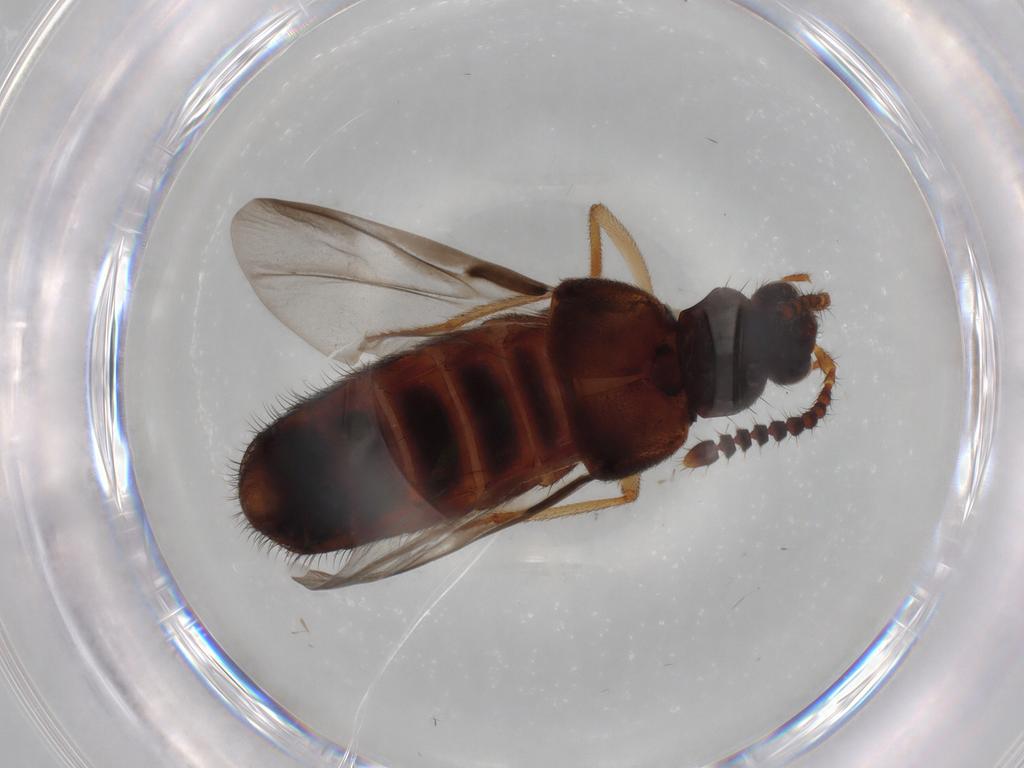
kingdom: Animalia
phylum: Arthropoda
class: Insecta
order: Coleoptera
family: Staphylinidae
